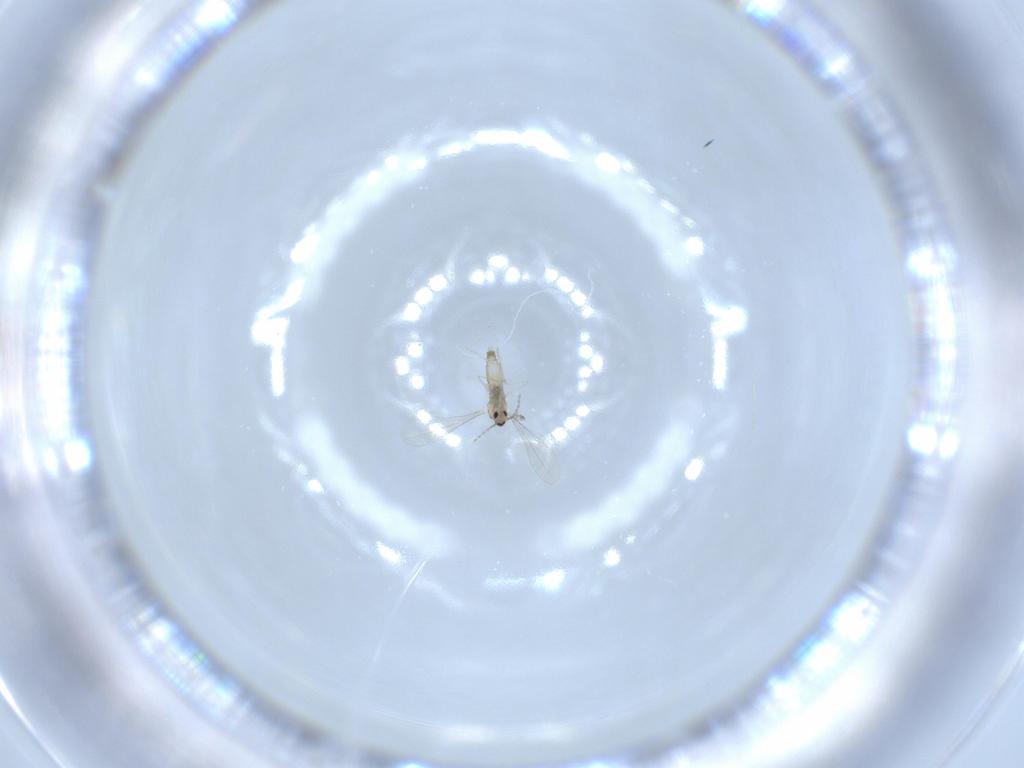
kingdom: Animalia
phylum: Arthropoda
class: Insecta
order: Diptera
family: Cecidomyiidae
